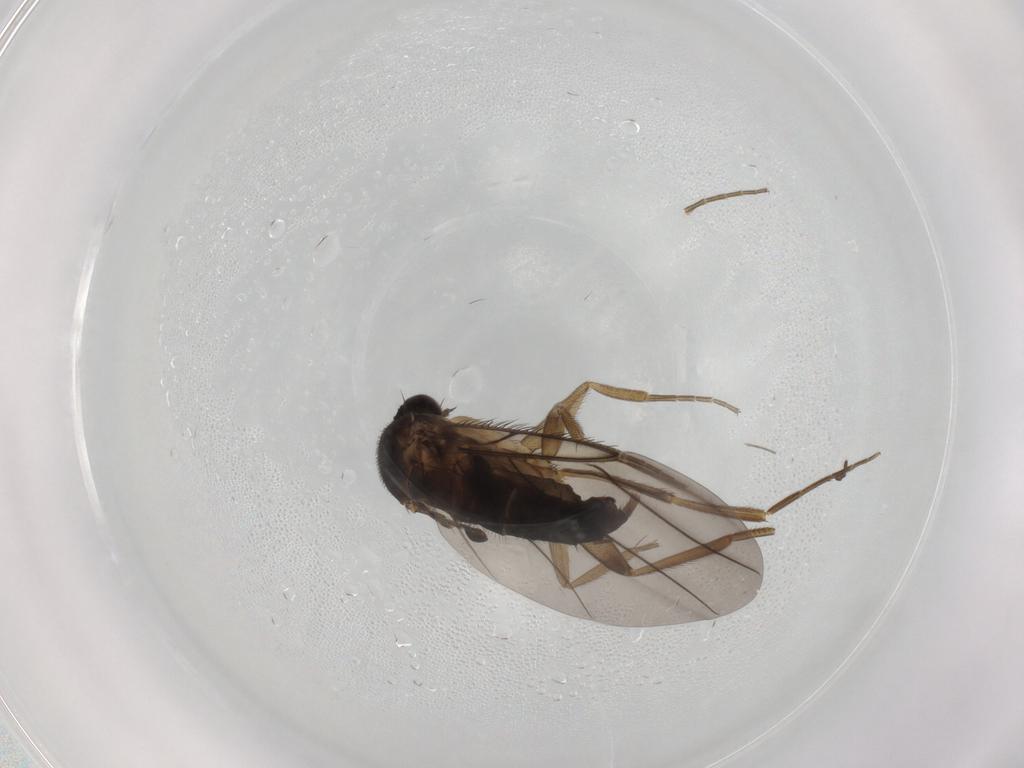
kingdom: Animalia
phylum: Arthropoda
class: Insecta
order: Diptera
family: Phoridae
